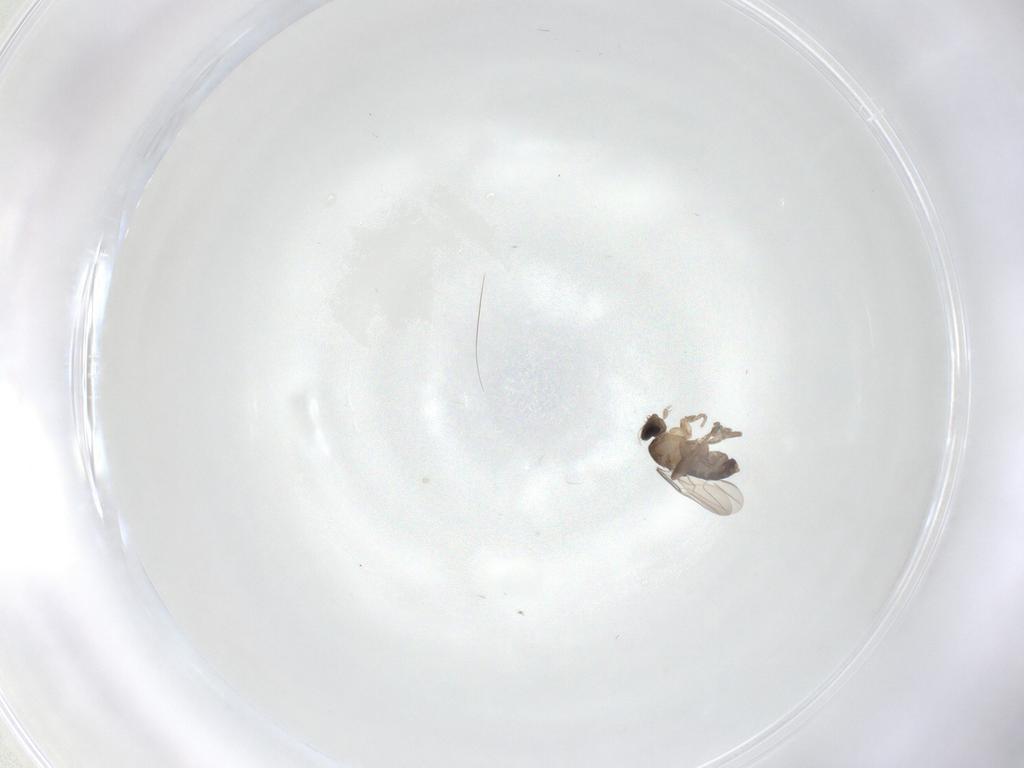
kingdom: Animalia
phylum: Arthropoda
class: Insecta
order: Diptera
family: Phoridae
